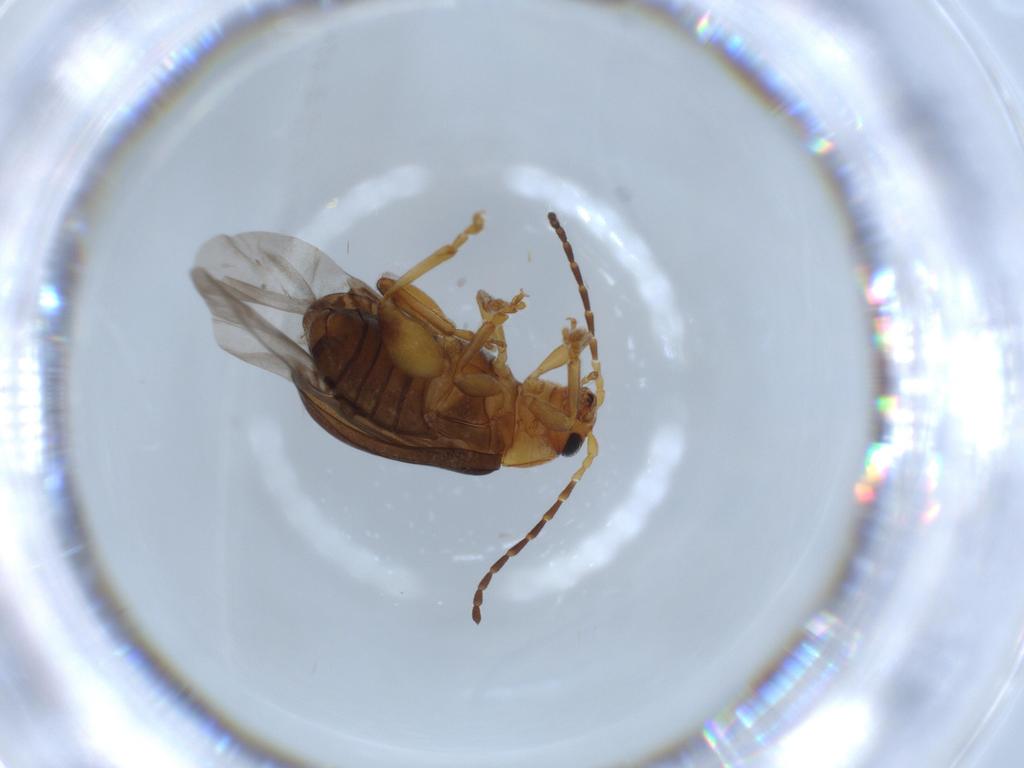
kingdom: Animalia
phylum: Arthropoda
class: Insecta
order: Coleoptera
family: Chrysomelidae
